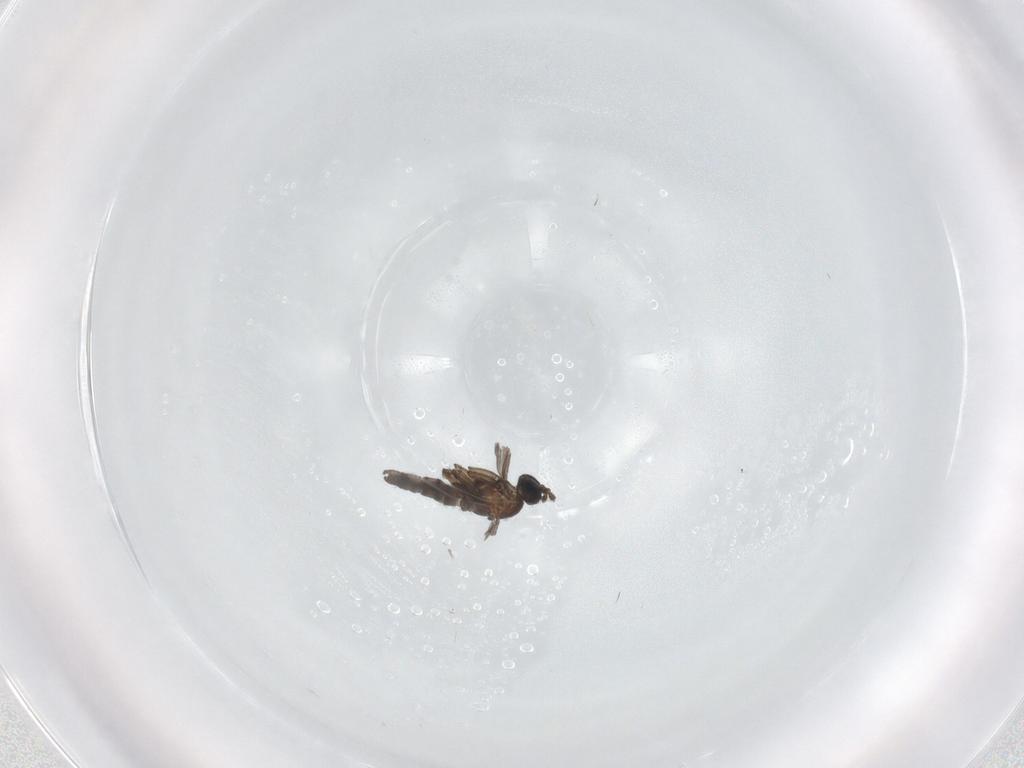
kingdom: Animalia
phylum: Arthropoda
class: Insecta
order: Diptera
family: Cecidomyiidae
